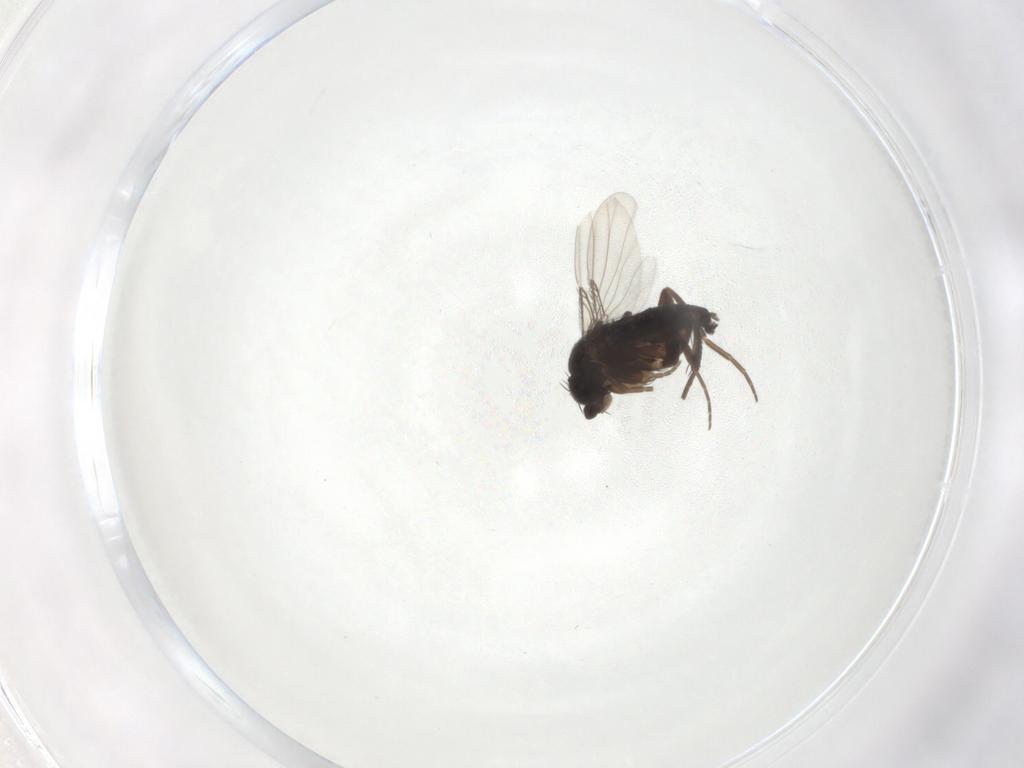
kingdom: Animalia
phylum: Arthropoda
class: Insecta
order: Diptera
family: Phoridae
